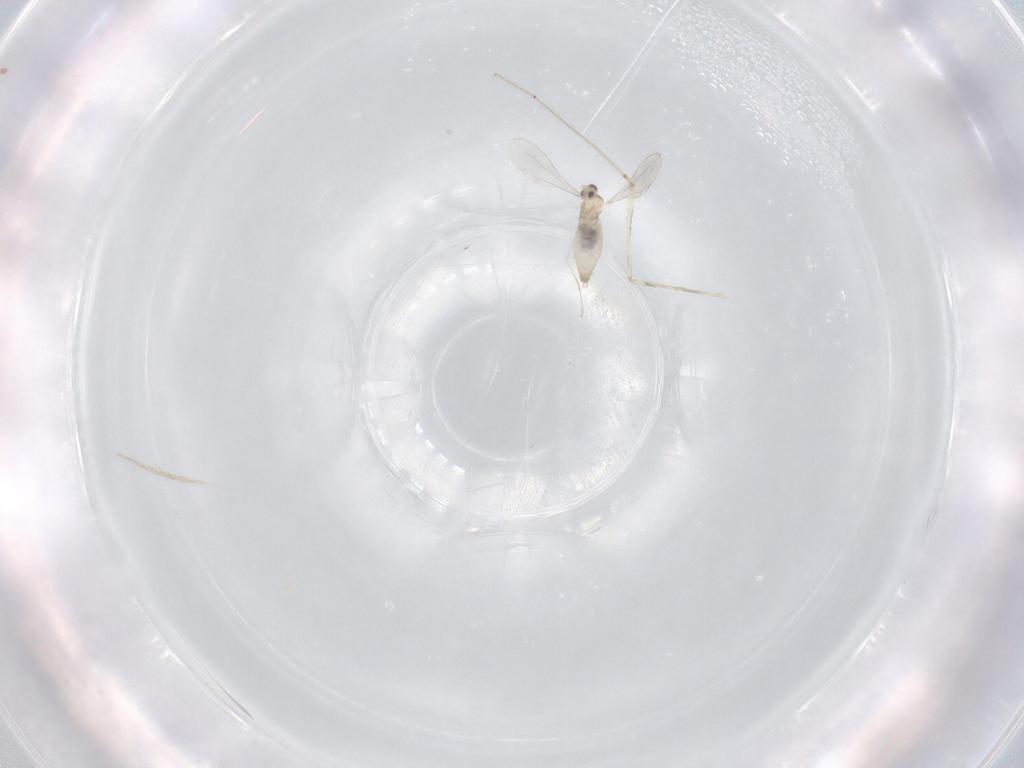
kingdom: Animalia
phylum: Arthropoda
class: Insecta
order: Diptera
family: Cecidomyiidae
